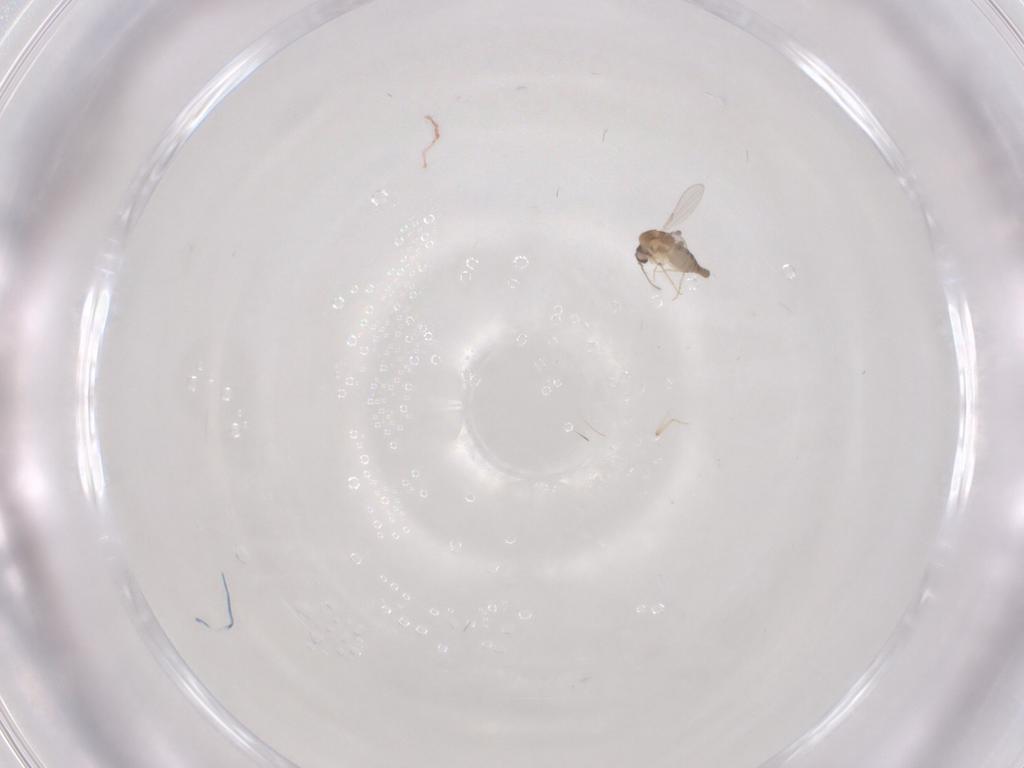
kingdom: Animalia
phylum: Arthropoda
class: Insecta
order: Diptera
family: Ceratopogonidae
